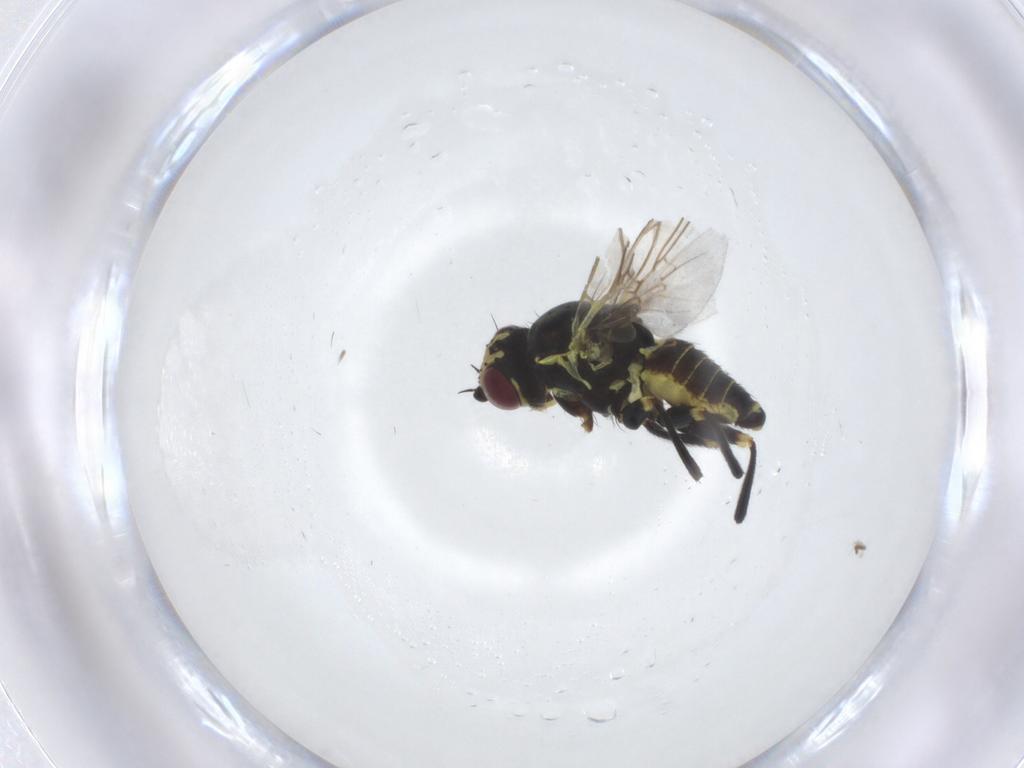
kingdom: Animalia
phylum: Arthropoda
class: Insecta
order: Diptera
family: Agromyzidae
